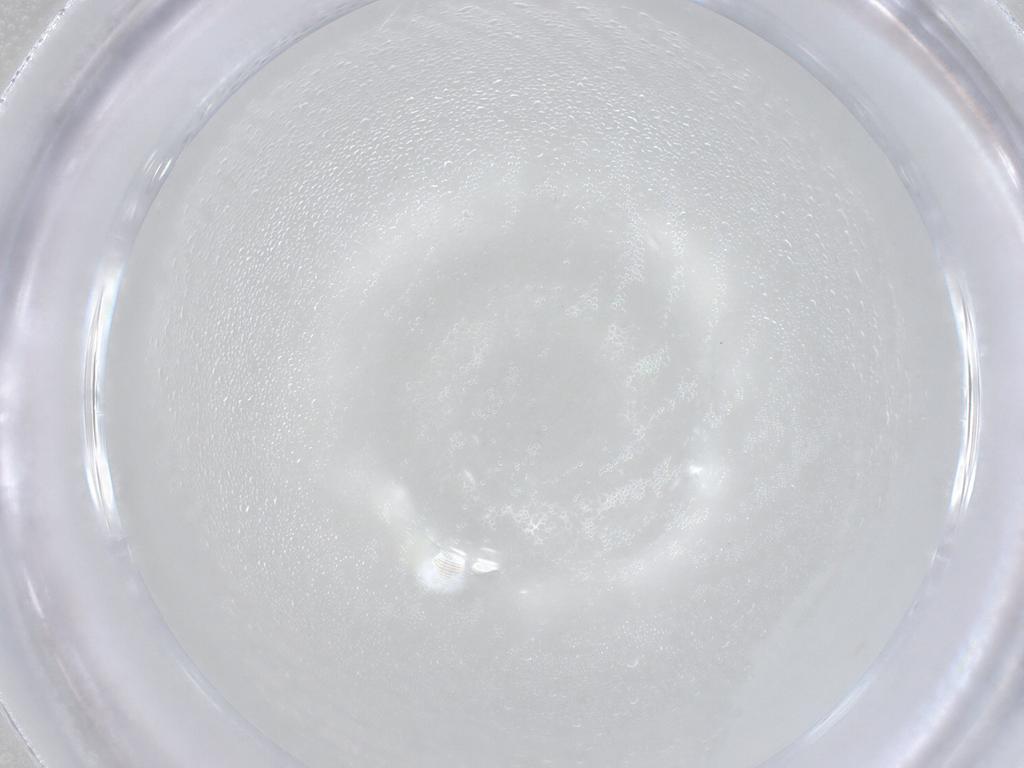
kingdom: Animalia
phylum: Arthropoda
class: Collembola
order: Entomobryomorpha
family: Entomobryidae
